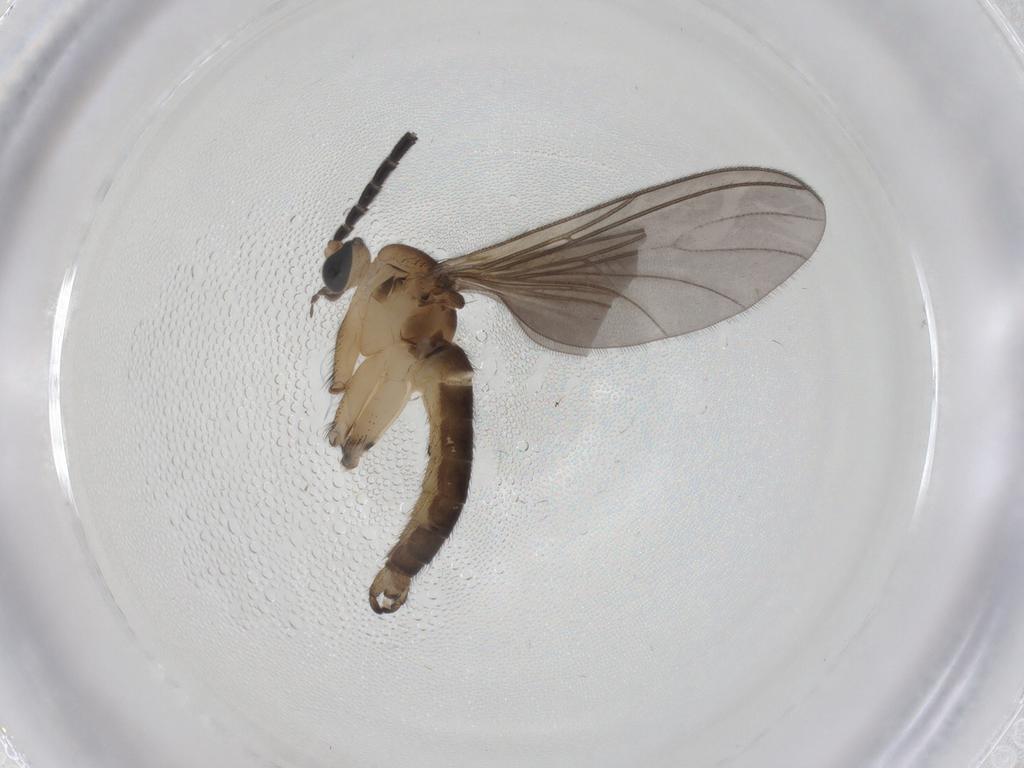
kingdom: Animalia
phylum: Arthropoda
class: Insecta
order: Diptera
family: Sciaridae
